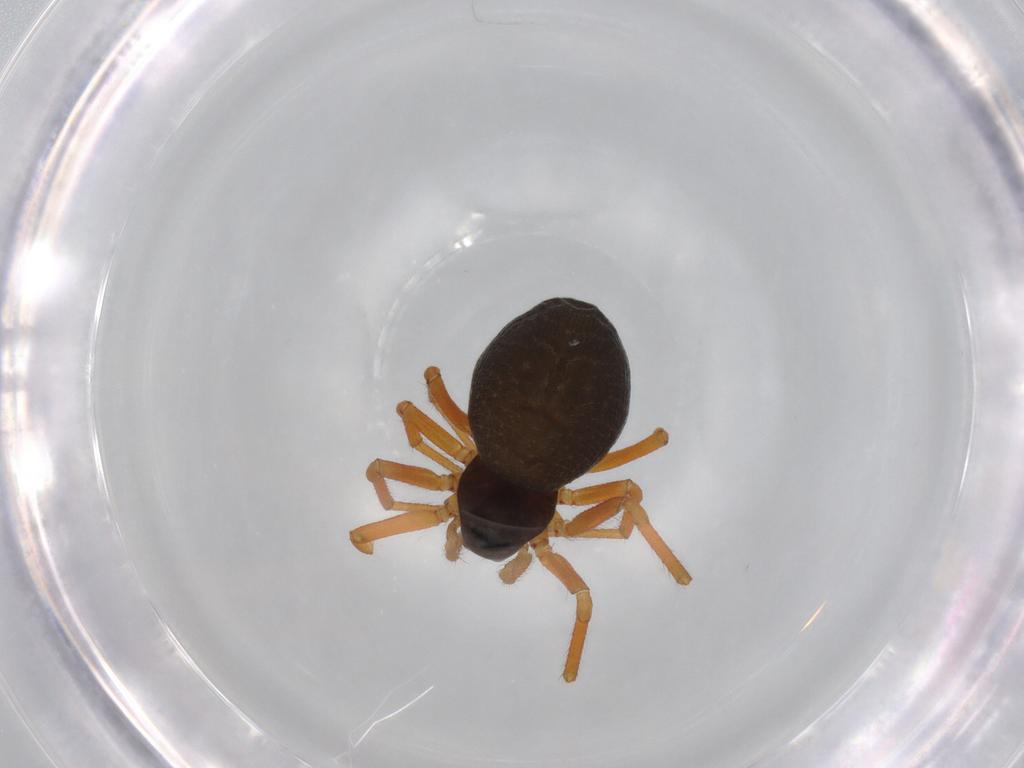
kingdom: Animalia
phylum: Arthropoda
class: Arachnida
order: Araneae
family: Linyphiidae
